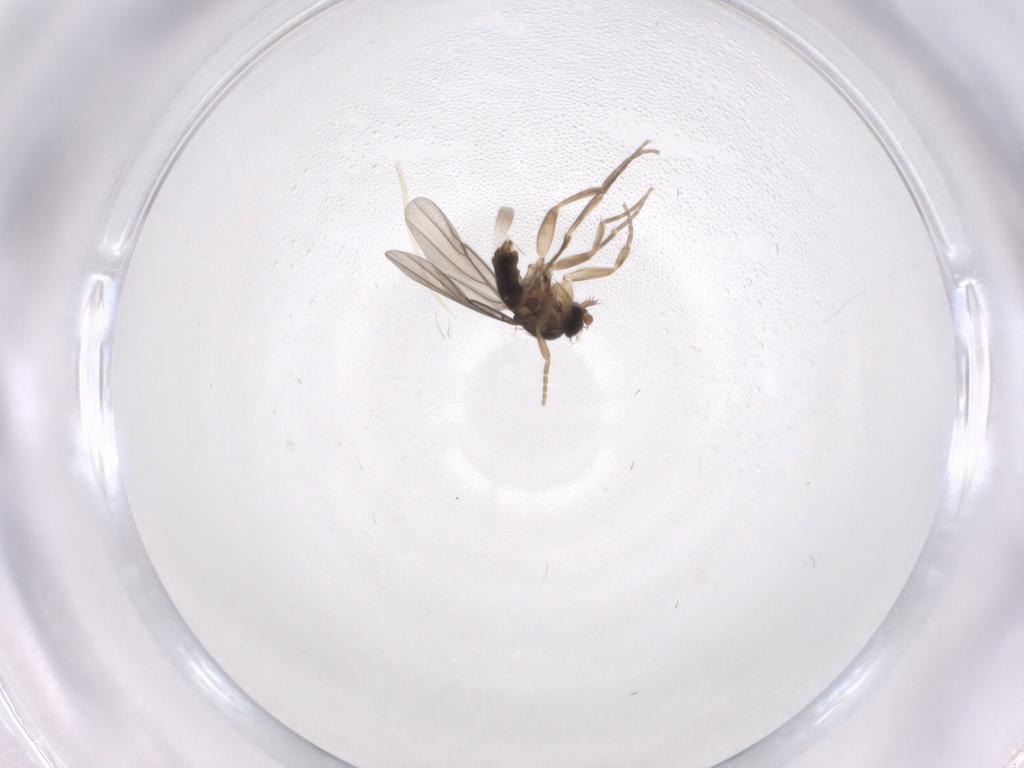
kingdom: Animalia
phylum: Arthropoda
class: Insecta
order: Diptera
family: Phoridae
